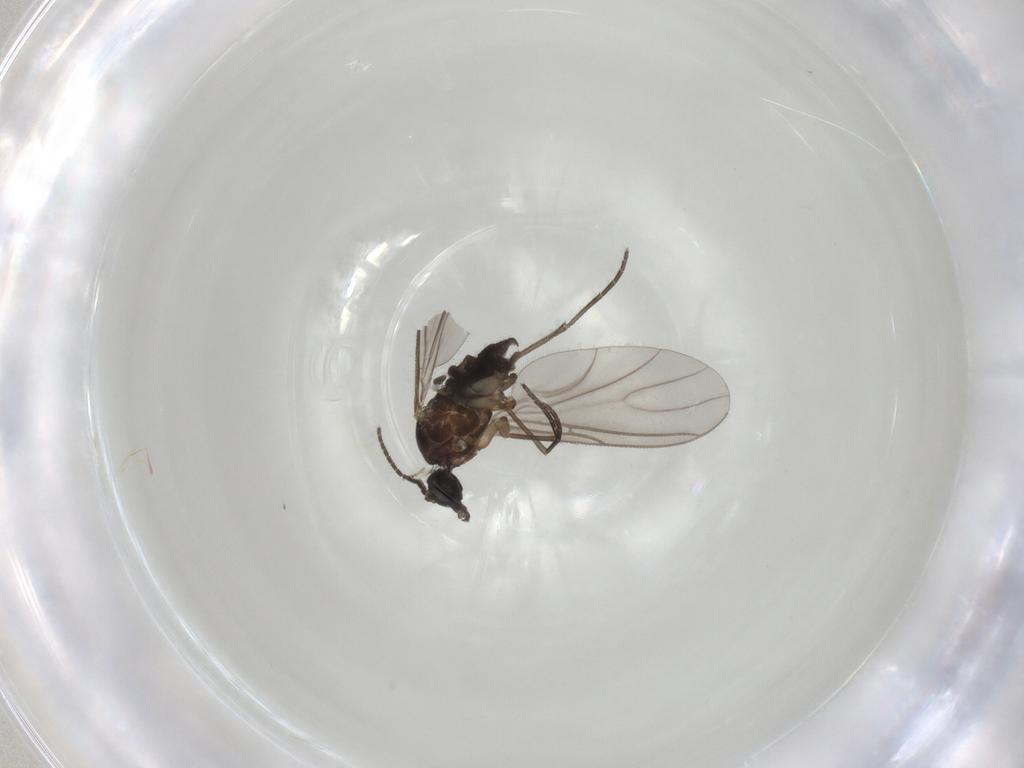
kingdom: Animalia
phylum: Arthropoda
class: Insecta
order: Diptera
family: Sciaridae
